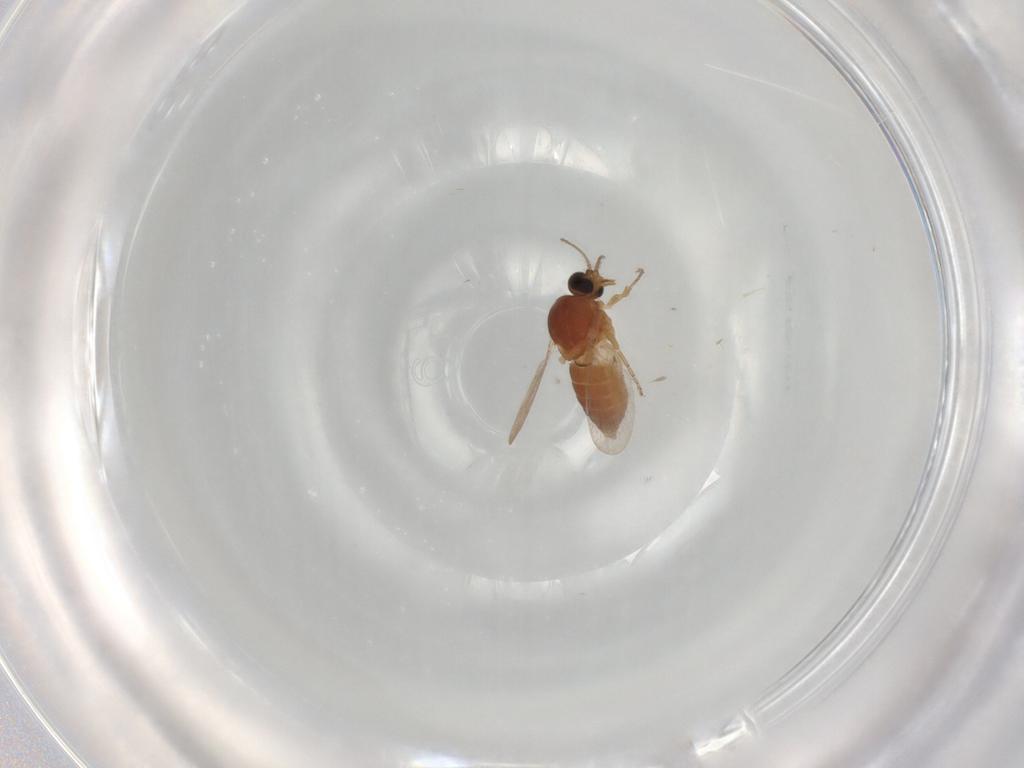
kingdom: Animalia
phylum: Arthropoda
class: Insecta
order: Diptera
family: Ceratopogonidae
